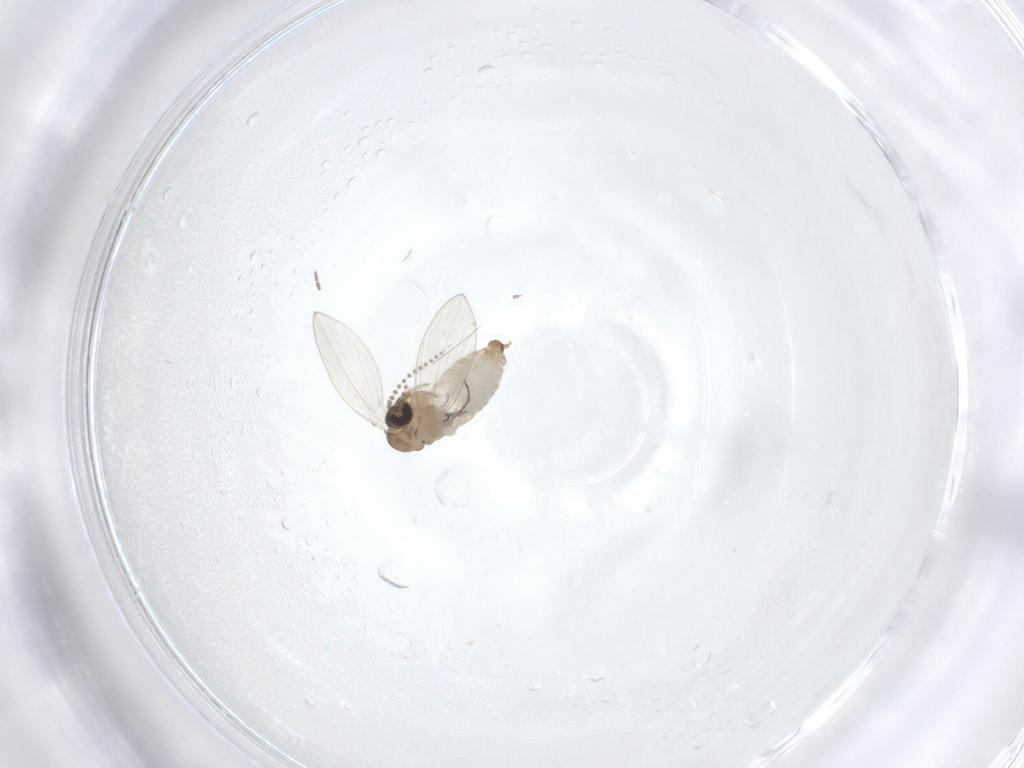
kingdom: Animalia
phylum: Arthropoda
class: Insecta
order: Diptera
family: Psychodidae
